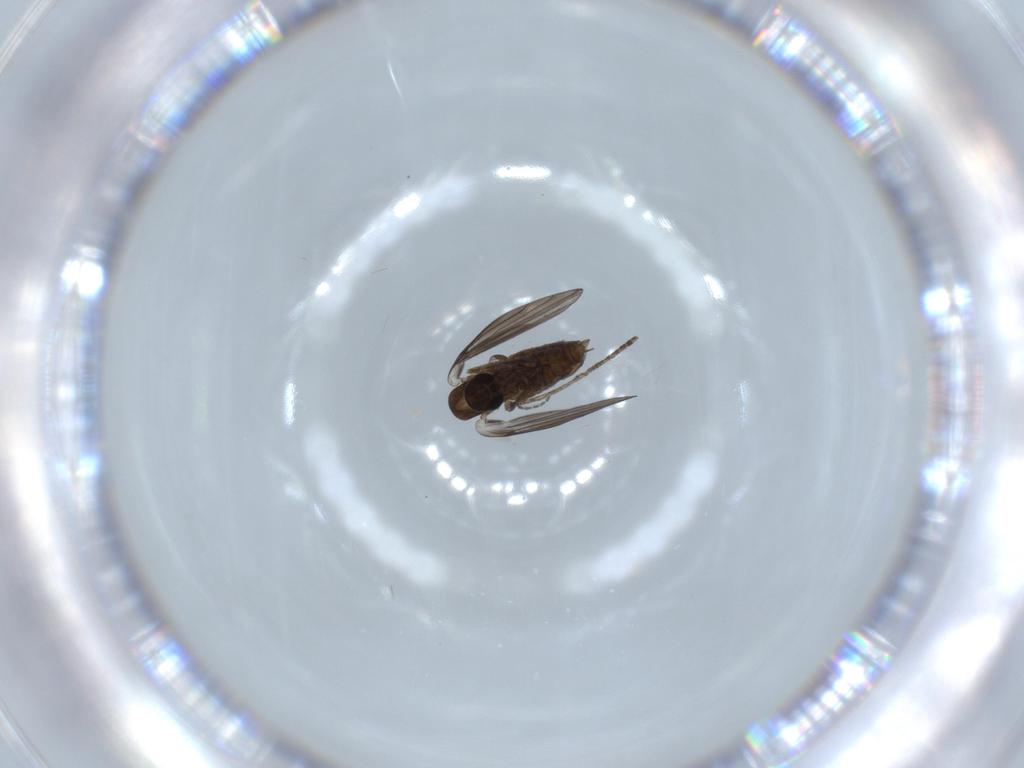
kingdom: Animalia
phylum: Arthropoda
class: Insecta
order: Diptera
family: Psychodidae
